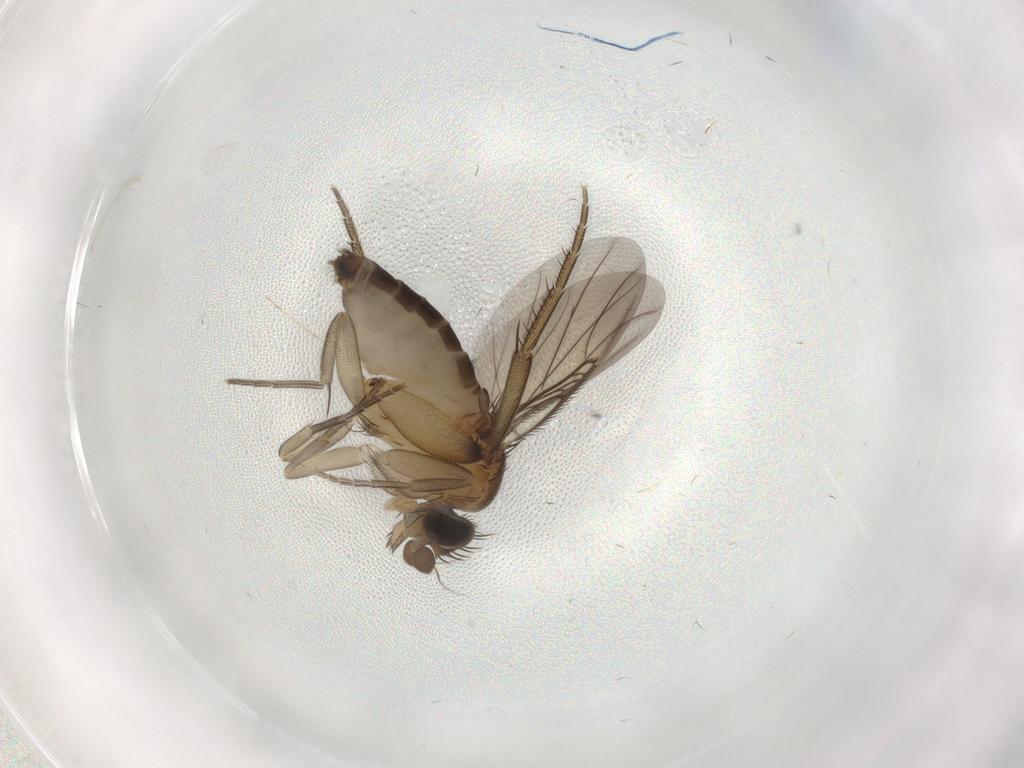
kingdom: Animalia
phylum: Arthropoda
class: Insecta
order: Diptera
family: Phoridae
